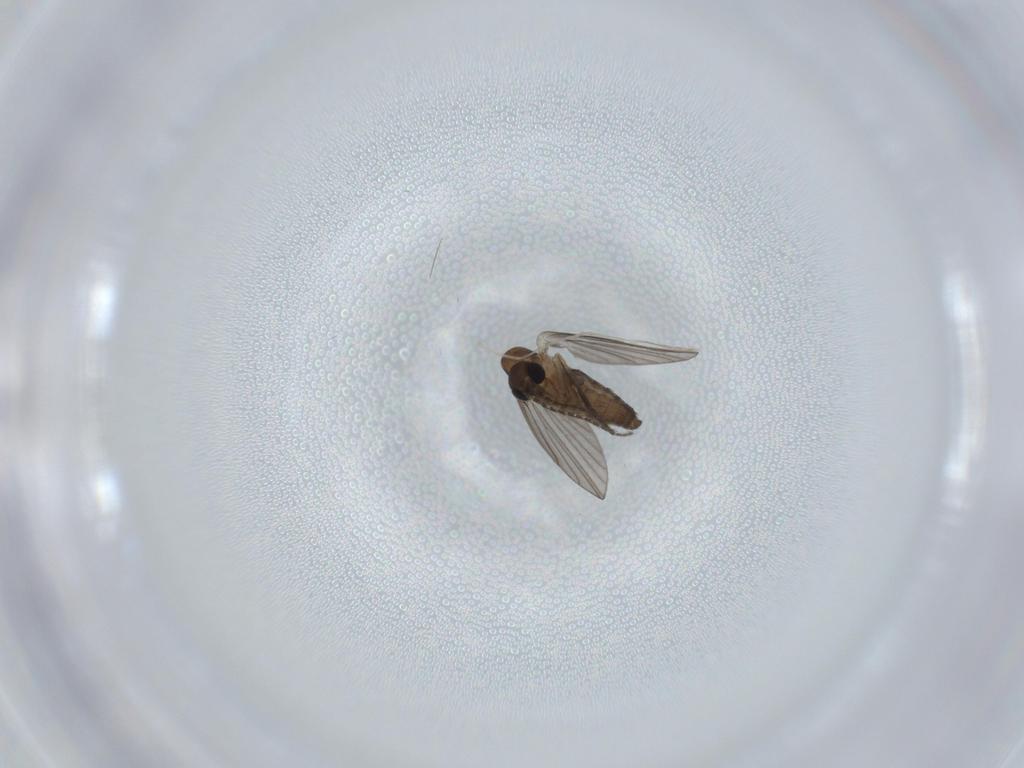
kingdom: Animalia
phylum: Arthropoda
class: Insecta
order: Diptera
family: Psychodidae
